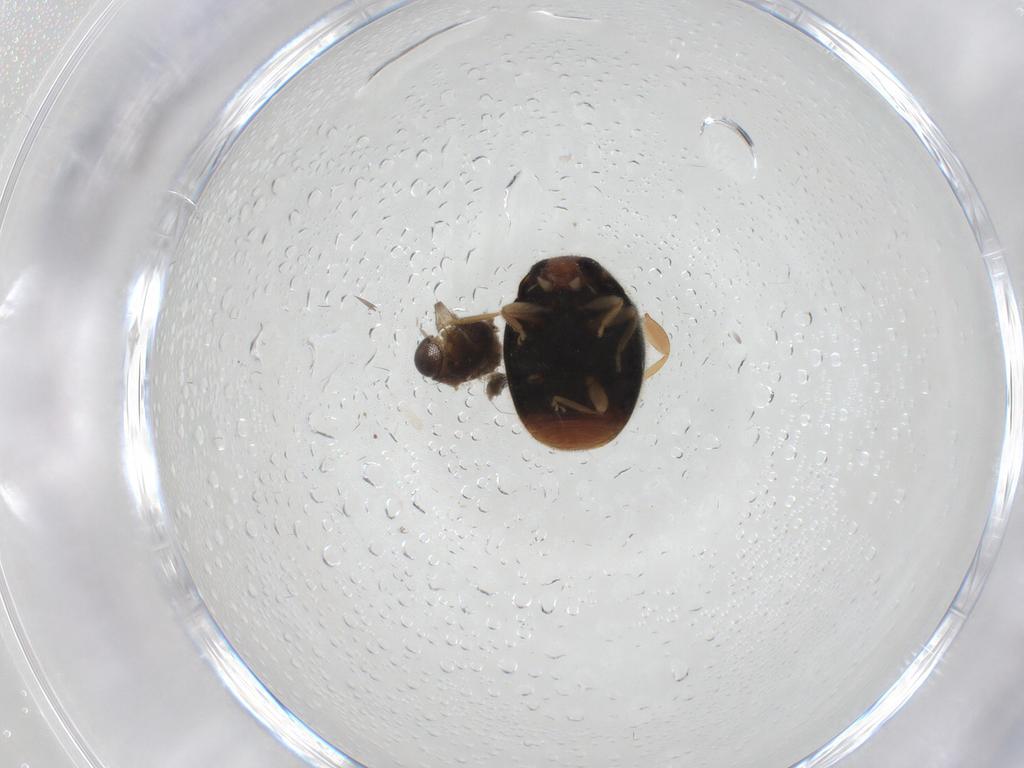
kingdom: Animalia
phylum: Arthropoda
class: Insecta
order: Coleoptera
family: Coccinellidae
